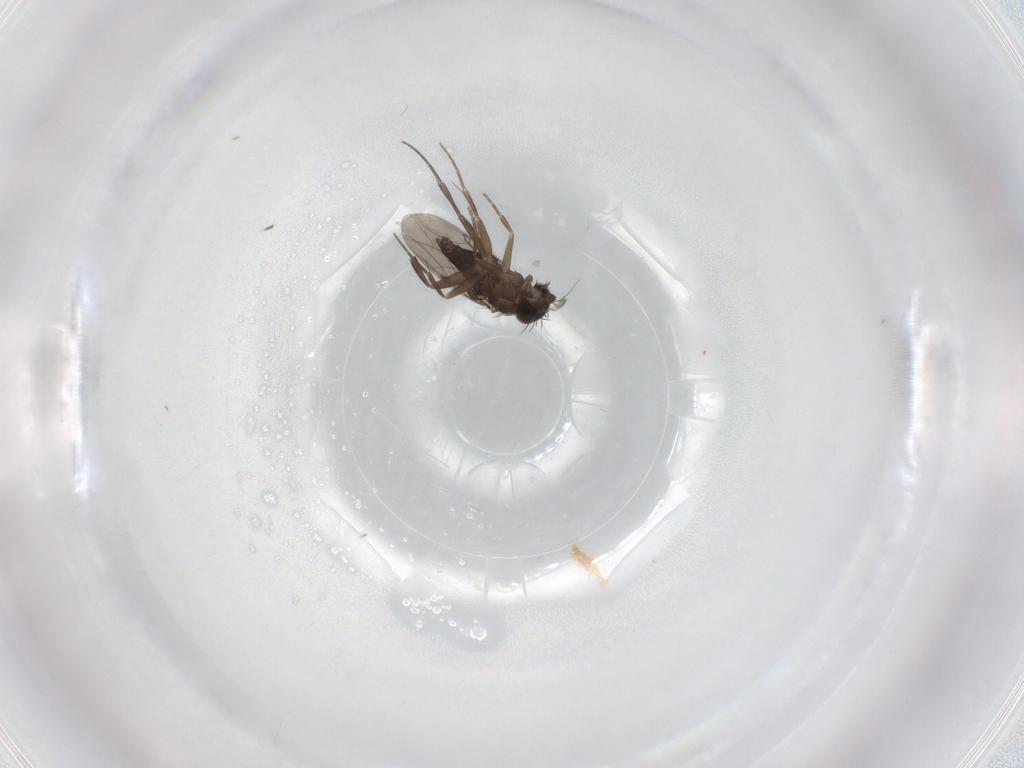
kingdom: Animalia
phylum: Arthropoda
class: Insecta
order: Diptera
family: Phoridae
